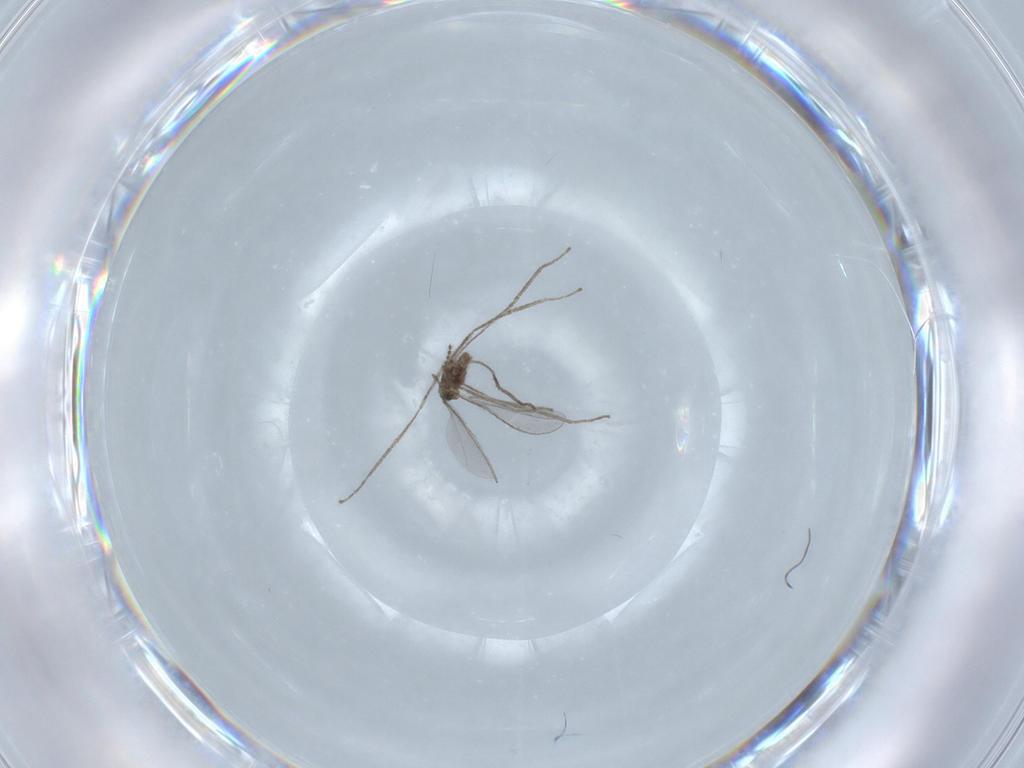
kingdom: Animalia
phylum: Arthropoda
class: Insecta
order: Diptera
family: Cecidomyiidae
